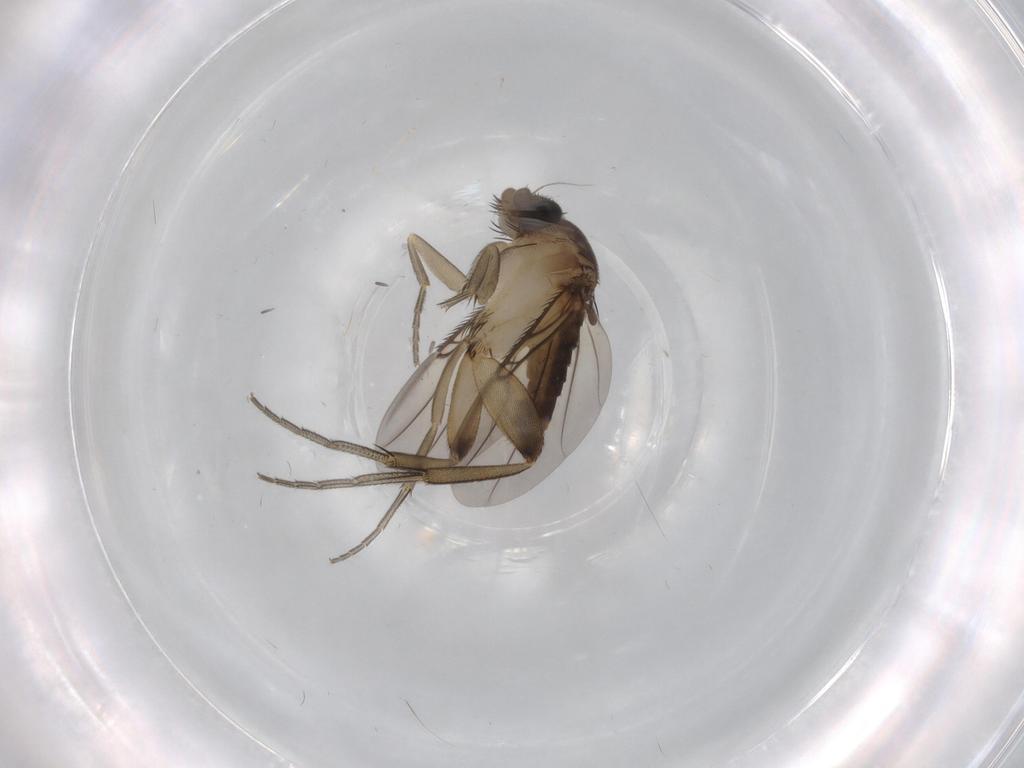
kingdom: Animalia
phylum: Arthropoda
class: Insecta
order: Diptera
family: Phoridae
